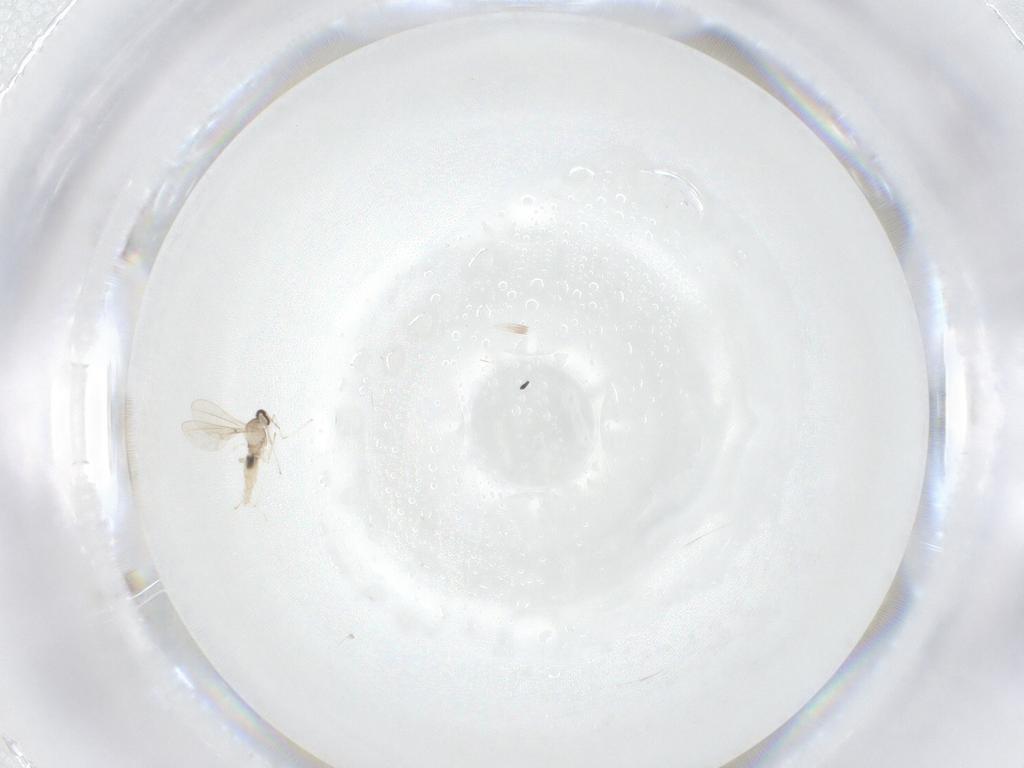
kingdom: Animalia
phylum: Arthropoda
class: Insecta
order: Diptera
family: Cecidomyiidae
